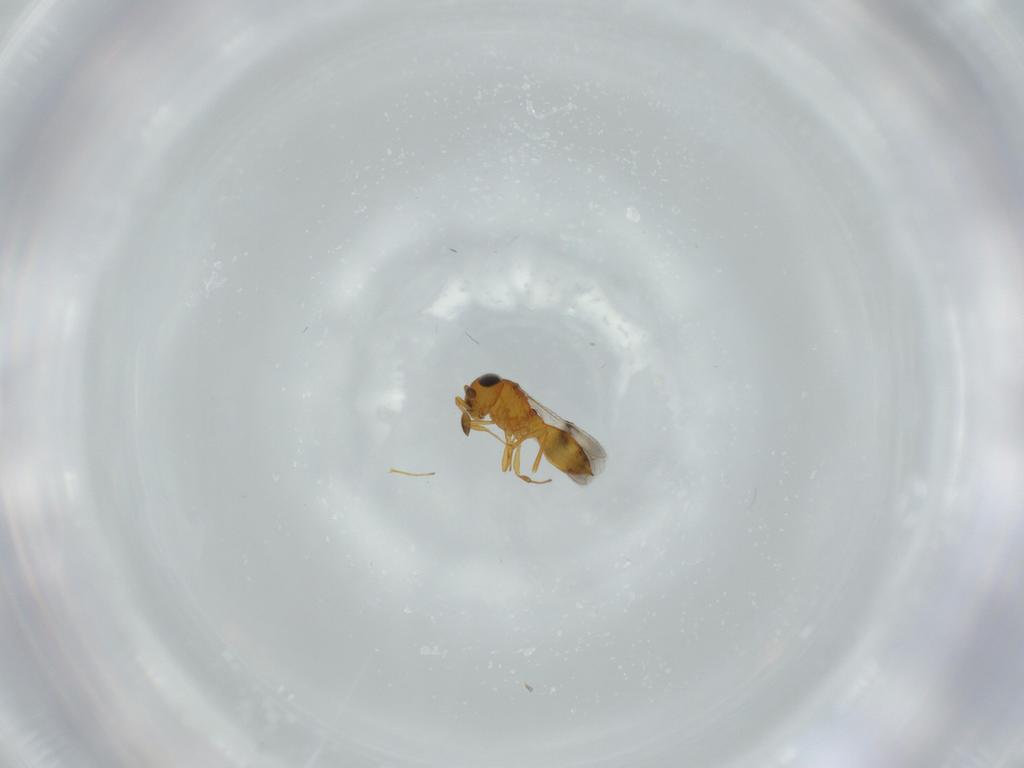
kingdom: Animalia
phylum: Arthropoda
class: Insecta
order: Hymenoptera
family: Scelionidae
